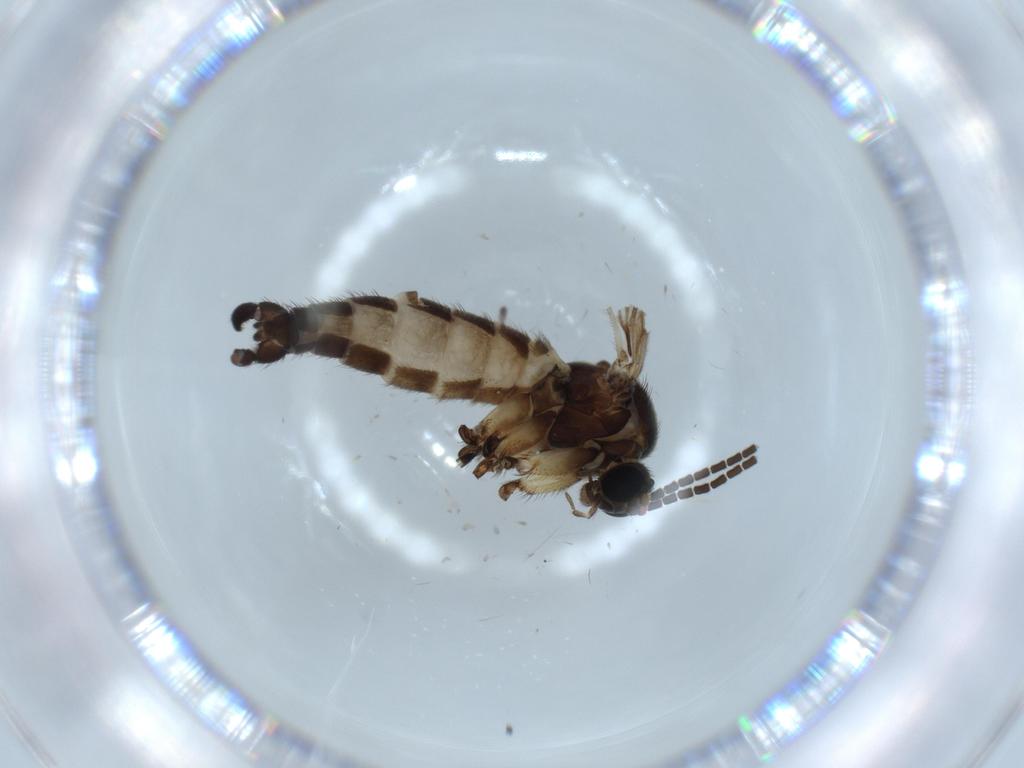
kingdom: Animalia
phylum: Arthropoda
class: Insecta
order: Diptera
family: Sciaridae
